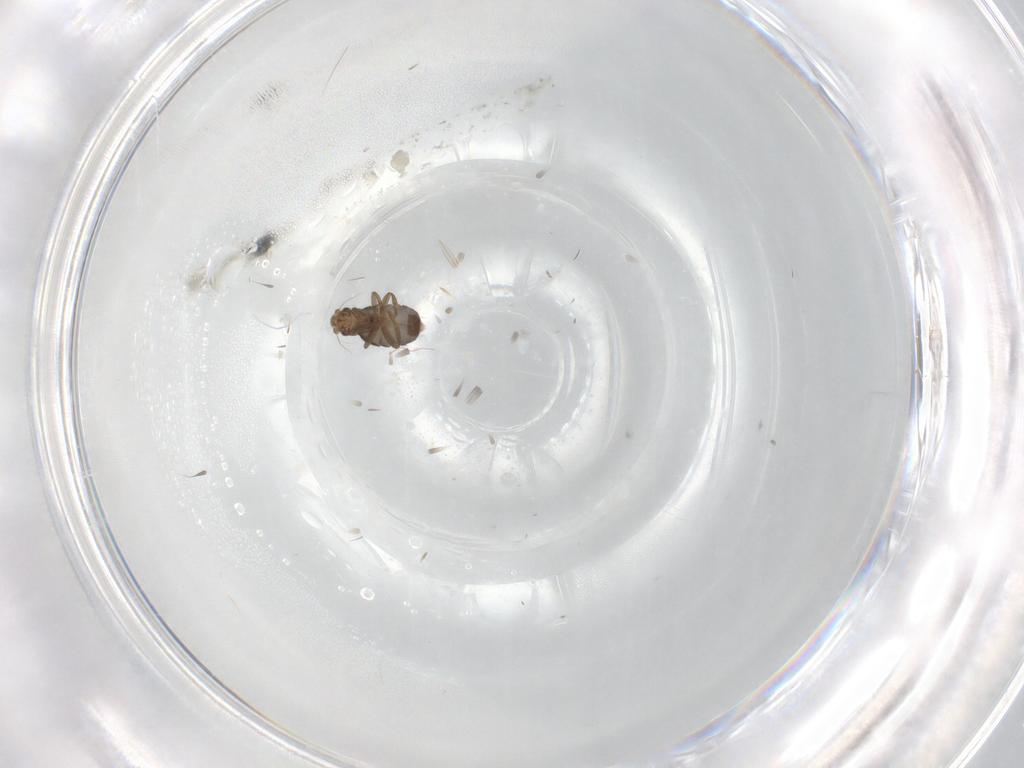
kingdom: Animalia
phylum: Arthropoda
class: Insecta
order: Diptera
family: Phoridae
